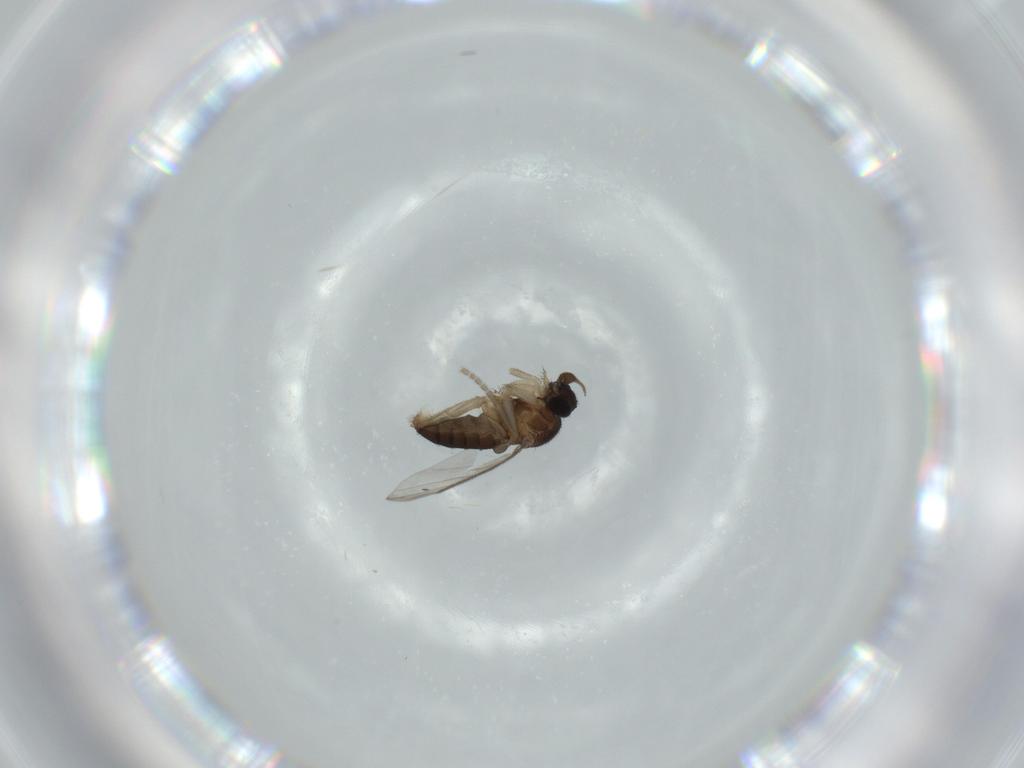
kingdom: Animalia
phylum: Arthropoda
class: Insecta
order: Diptera
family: Phoridae
